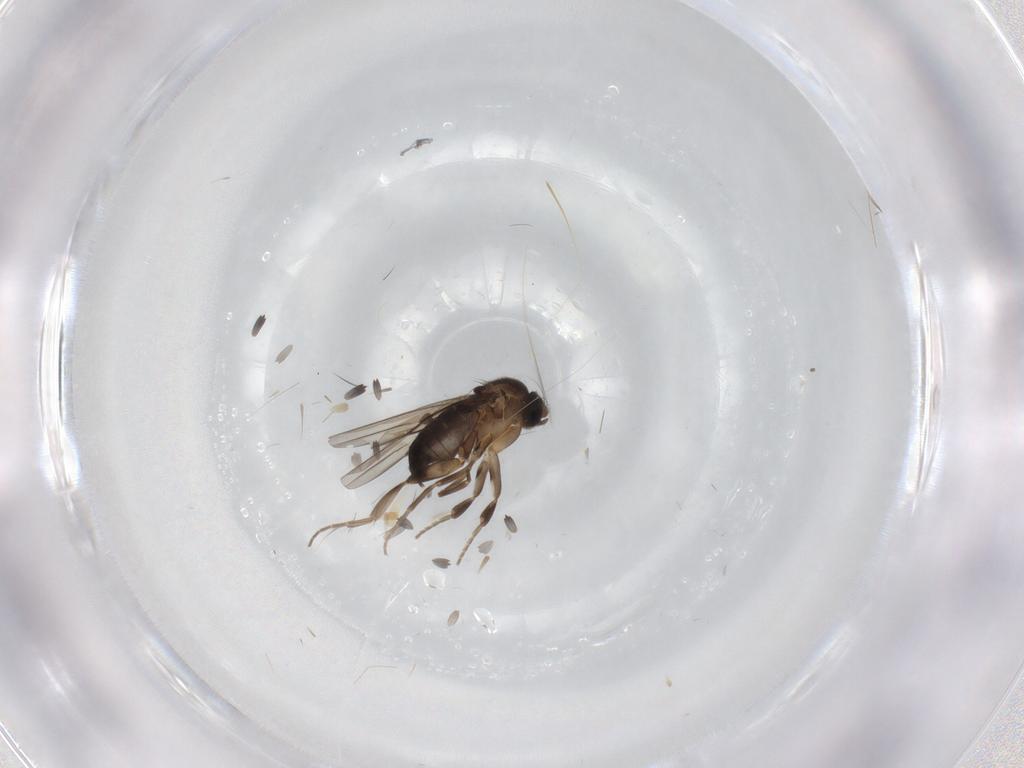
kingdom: Animalia
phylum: Arthropoda
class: Insecta
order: Diptera
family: Phoridae
